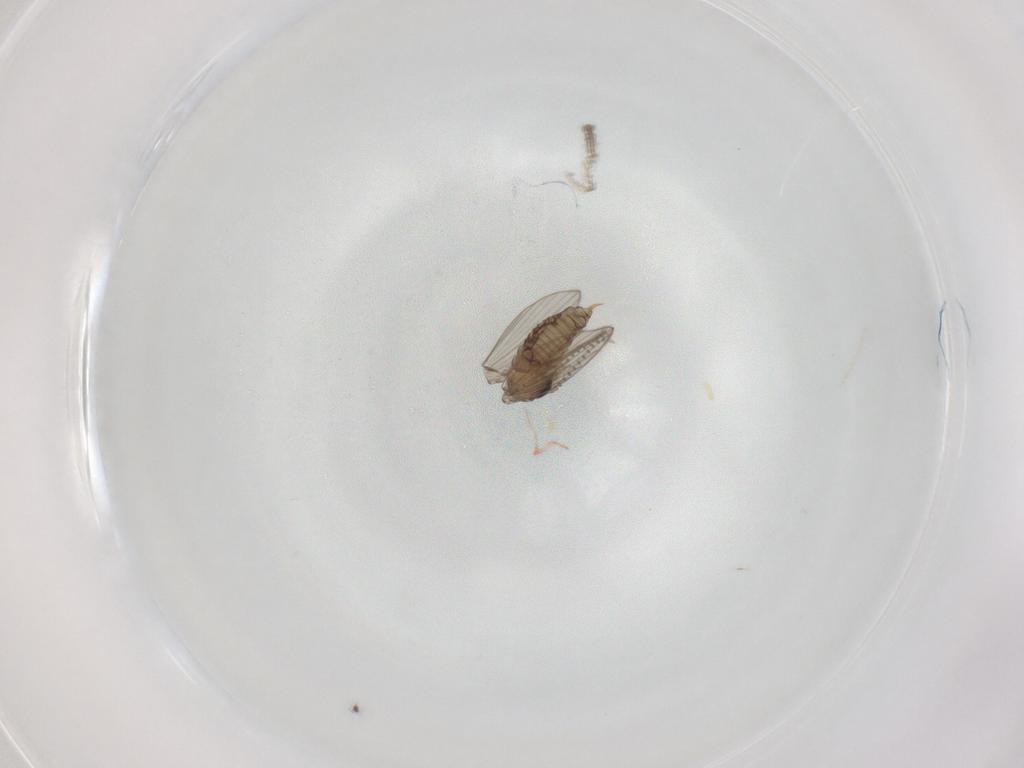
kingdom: Animalia
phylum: Arthropoda
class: Insecta
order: Diptera
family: Psychodidae
